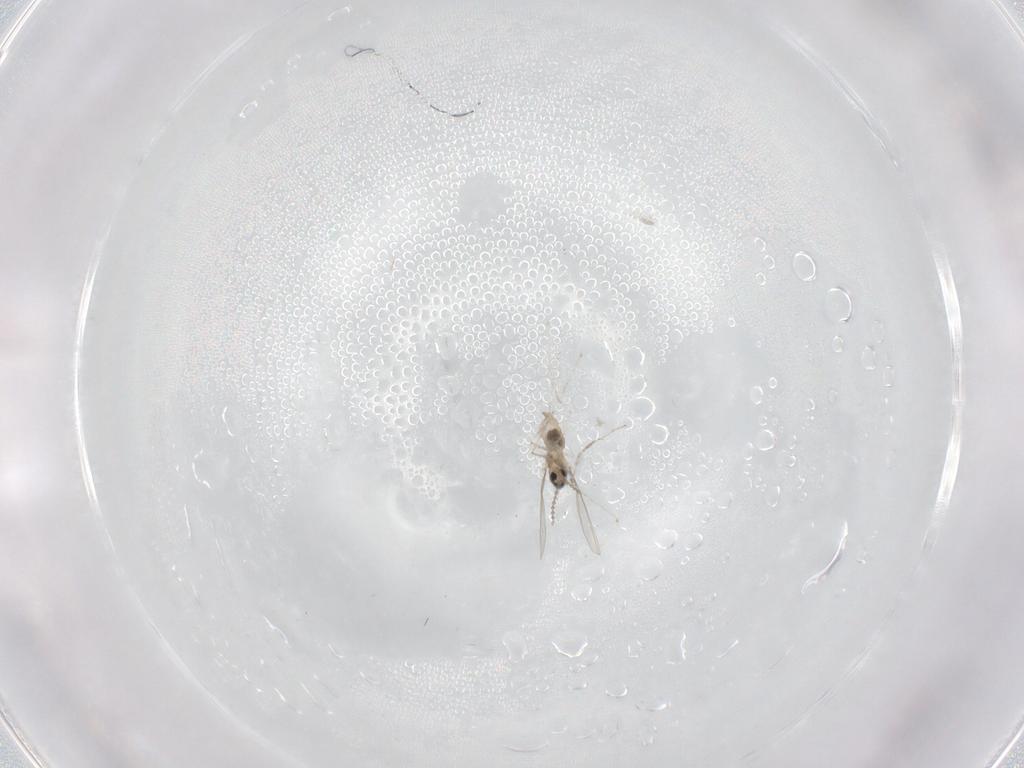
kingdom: Animalia
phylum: Arthropoda
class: Insecta
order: Diptera
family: Cecidomyiidae
